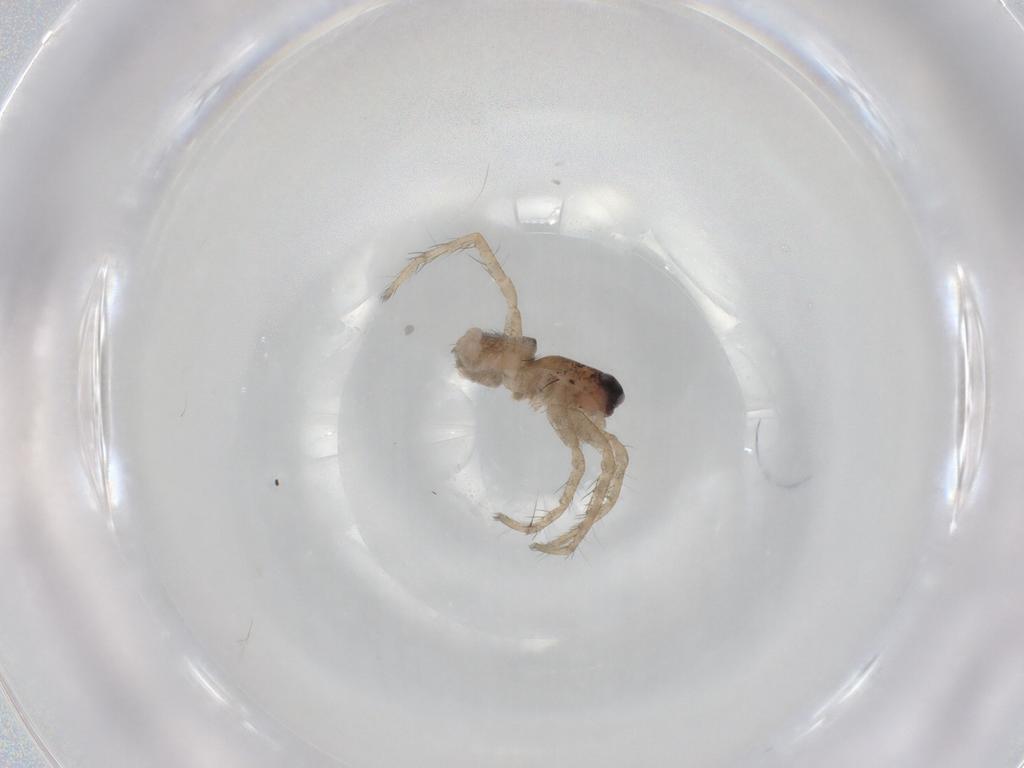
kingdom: Animalia
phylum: Arthropoda
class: Arachnida
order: Araneae
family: Lycosidae
